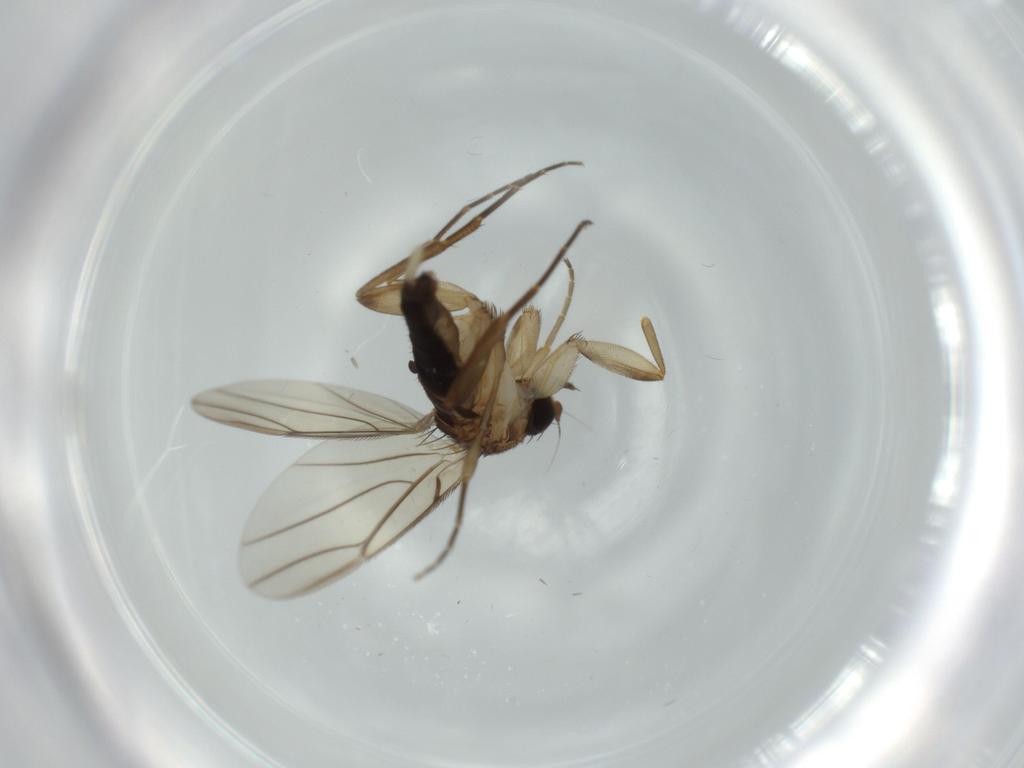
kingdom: Animalia
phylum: Arthropoda
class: Insecta
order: Diptera
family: Phoridae
